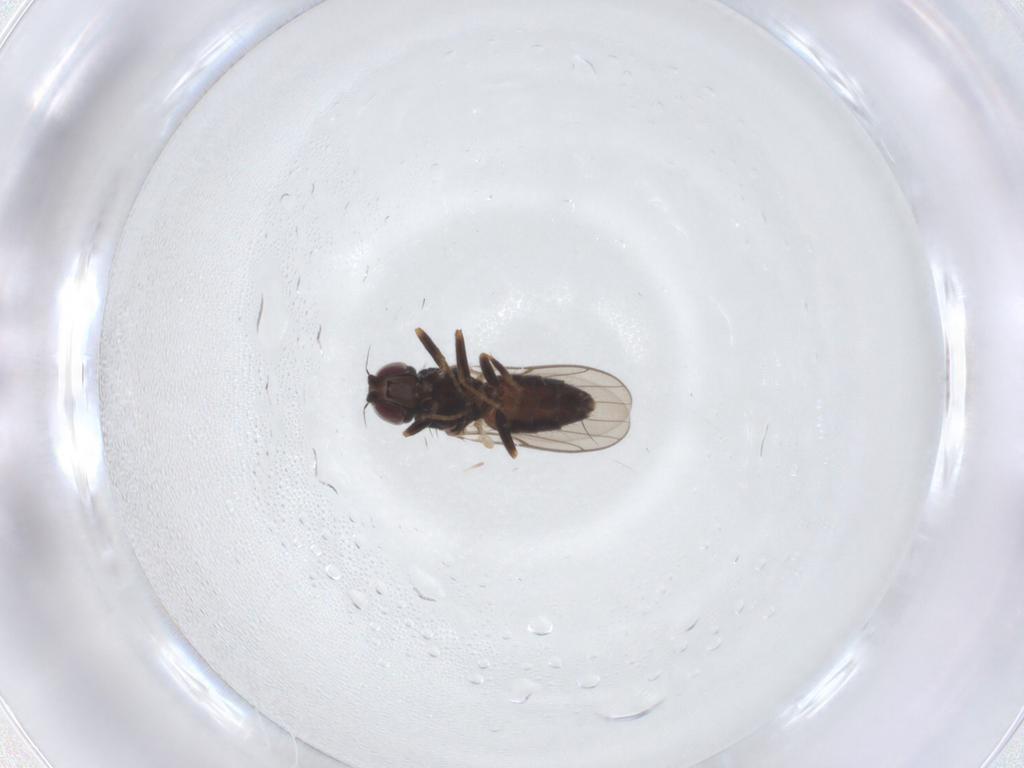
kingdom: Animalia
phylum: Arthropoda
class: Insecta
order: Diptera
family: Chloropidae
